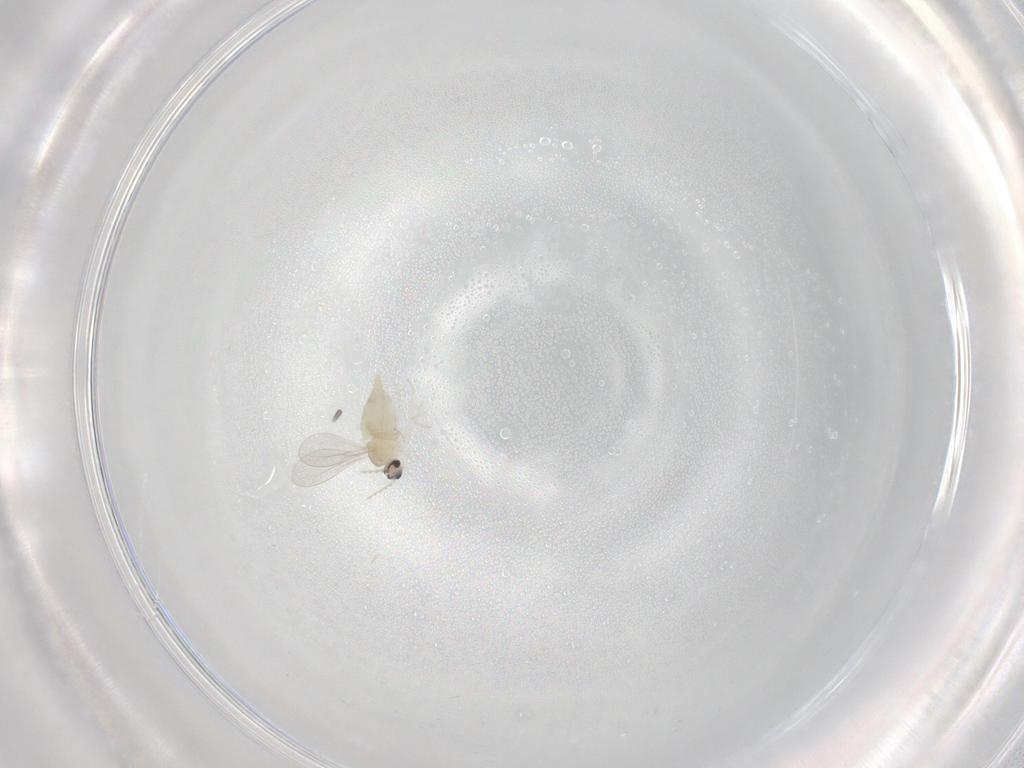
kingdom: Animalia
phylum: Arthropoda
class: Insecta
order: Diptera
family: Cecidomyiidae
